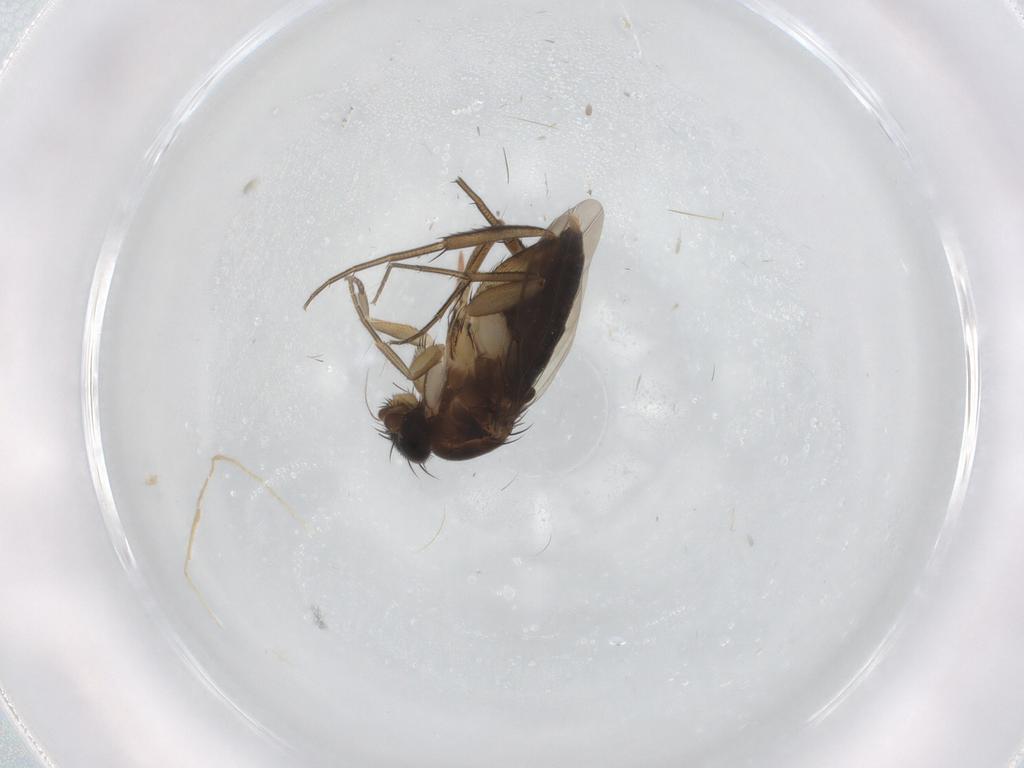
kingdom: Animalia
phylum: Arthropoda
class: Insecta
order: Diptera
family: Phoridae
